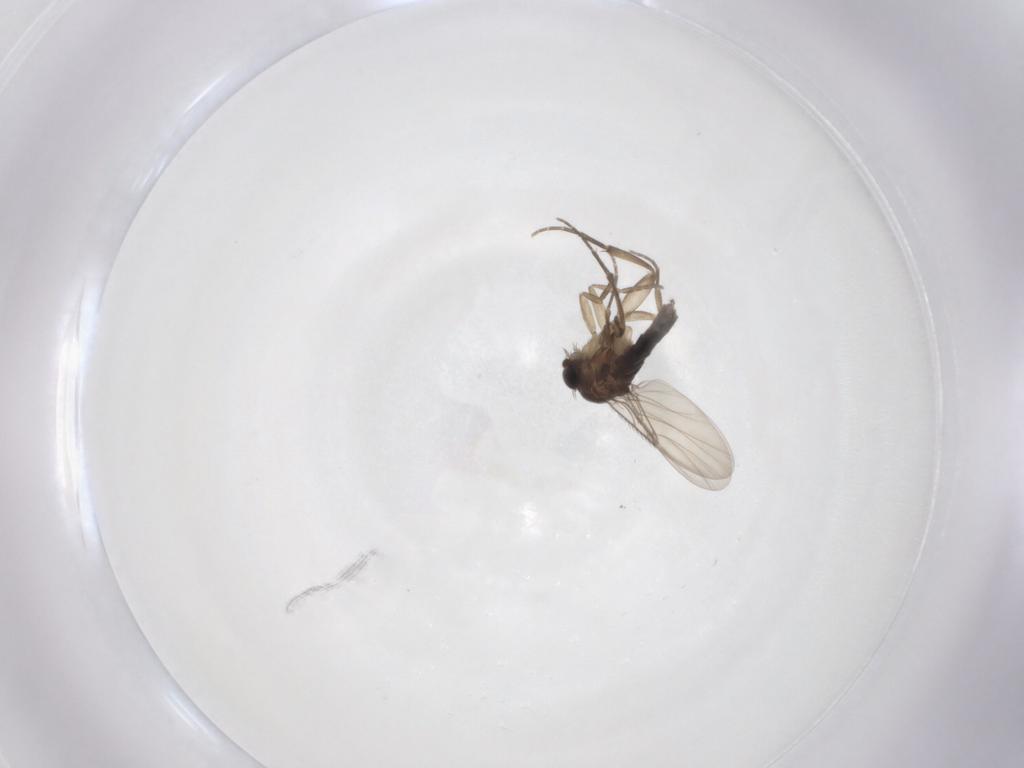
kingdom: Animalia
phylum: Arthropoda
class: Insecta
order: Diptera
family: Phoridae
